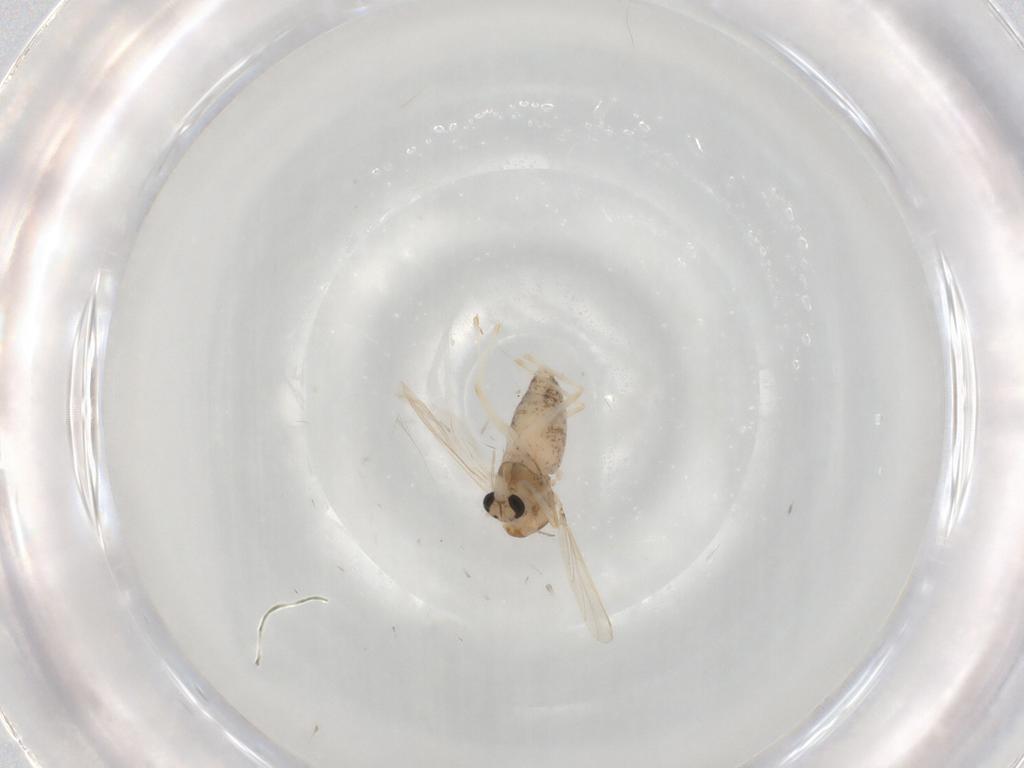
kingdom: Animalia
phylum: Arthropoda
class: Insecta
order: Diptera
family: Chironomidae
